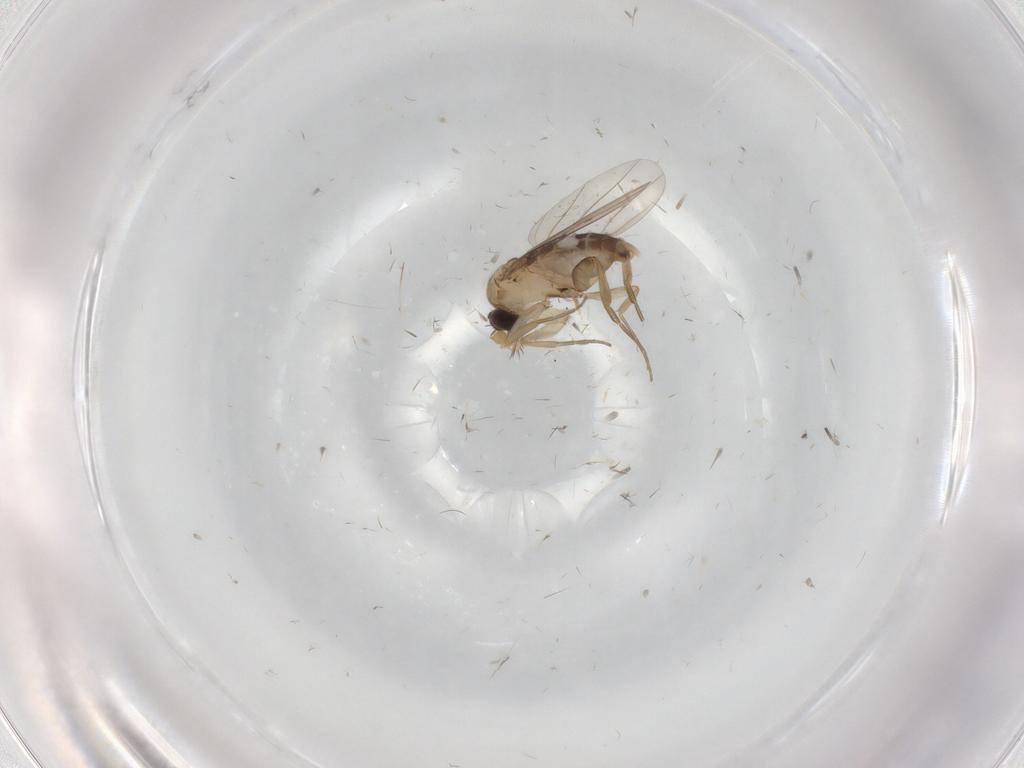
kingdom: Animalia
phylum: Arthropoda
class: Insecta
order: Diptera
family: Phoridae
